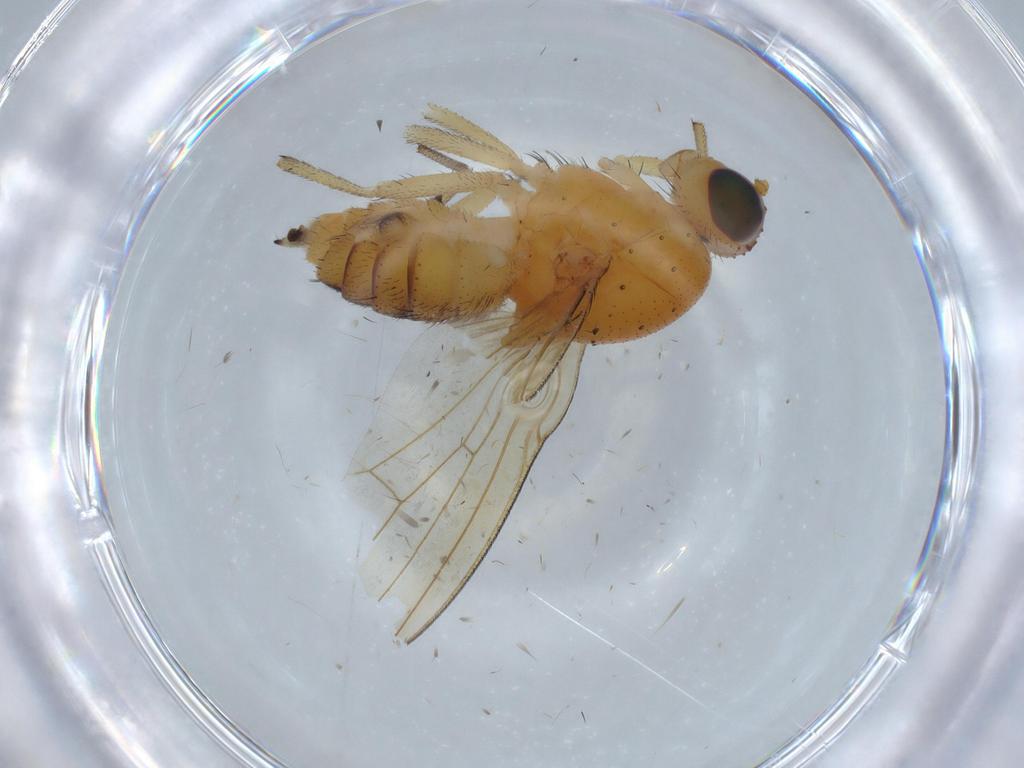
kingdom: Animalia
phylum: Arthropoda
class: Insecta
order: Diptera
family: Micropezidae
